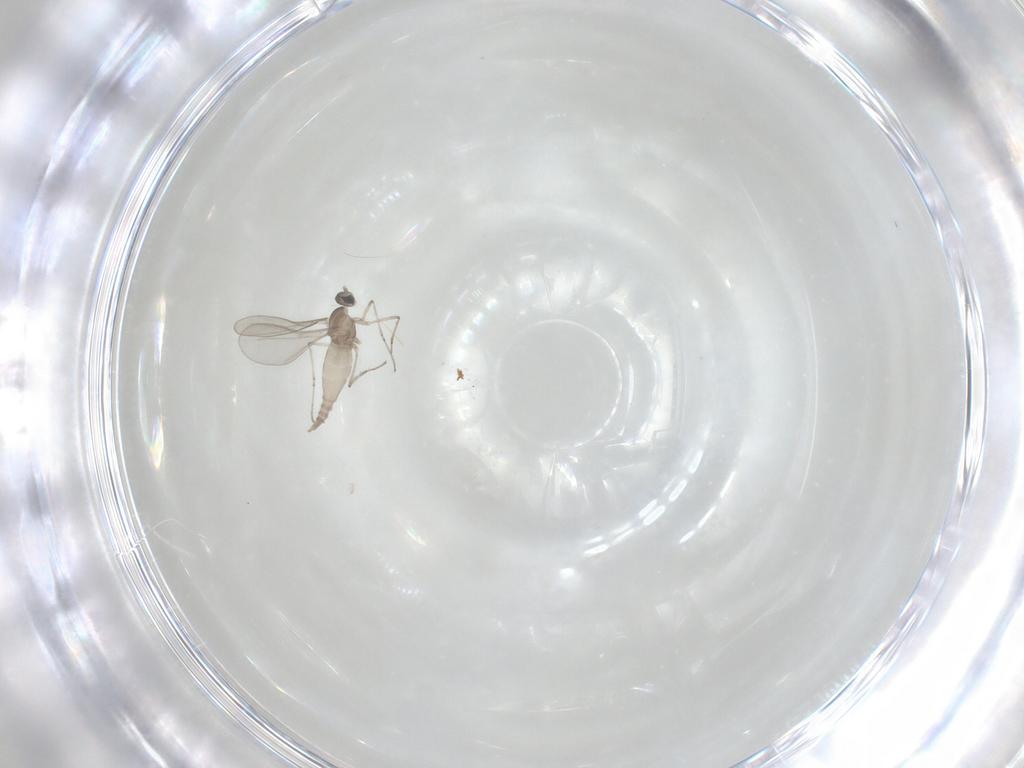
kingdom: Animalia
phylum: Arthropoda
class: Insecta
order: Diptera
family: Cecidomyiidae
